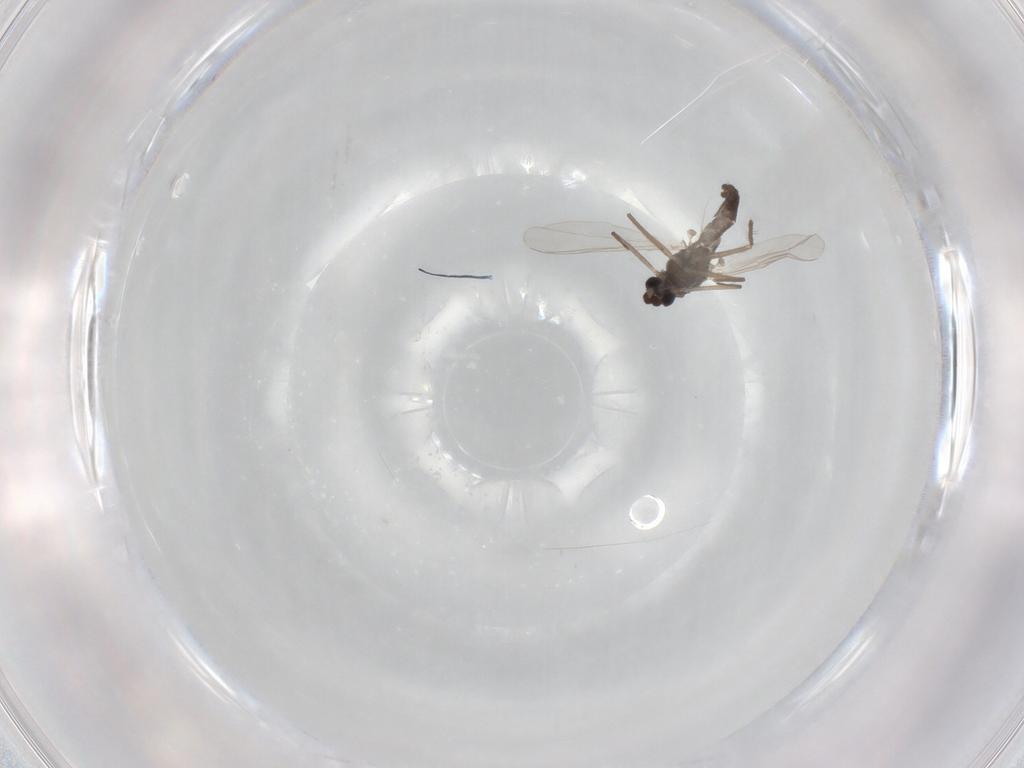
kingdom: Animalia
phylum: Arthropoda
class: Insecta
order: Diptera
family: Chironomidae
